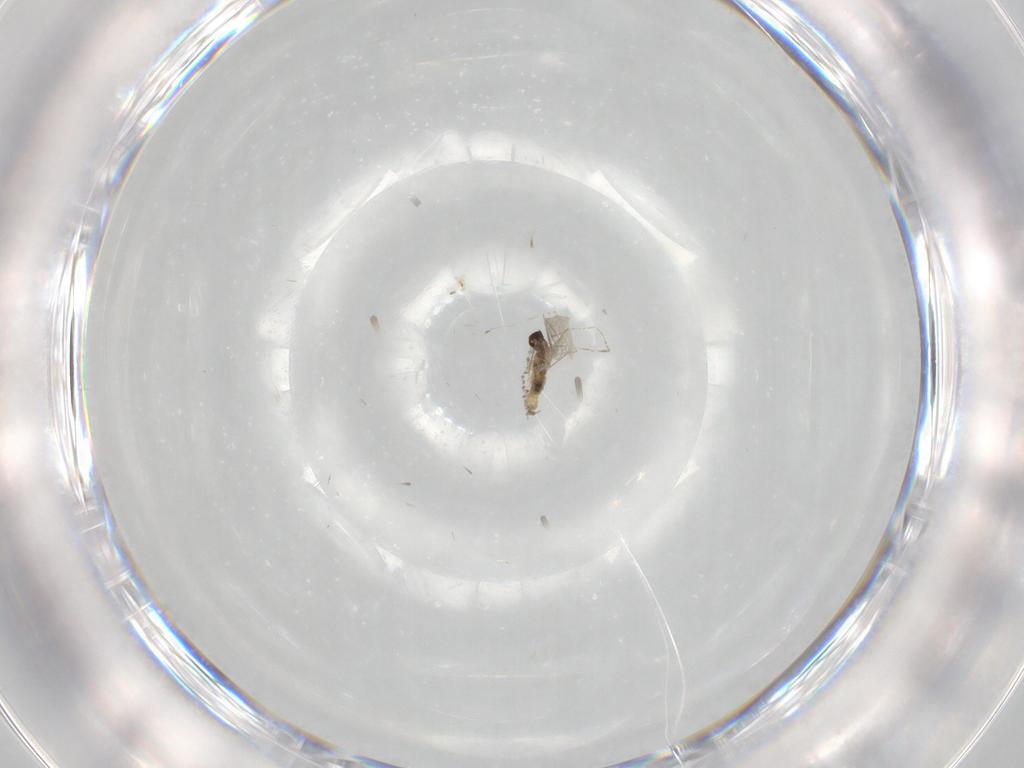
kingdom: Animalia
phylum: Arthropoda
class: Insecta
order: Diptera
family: Cecidomyiidae
